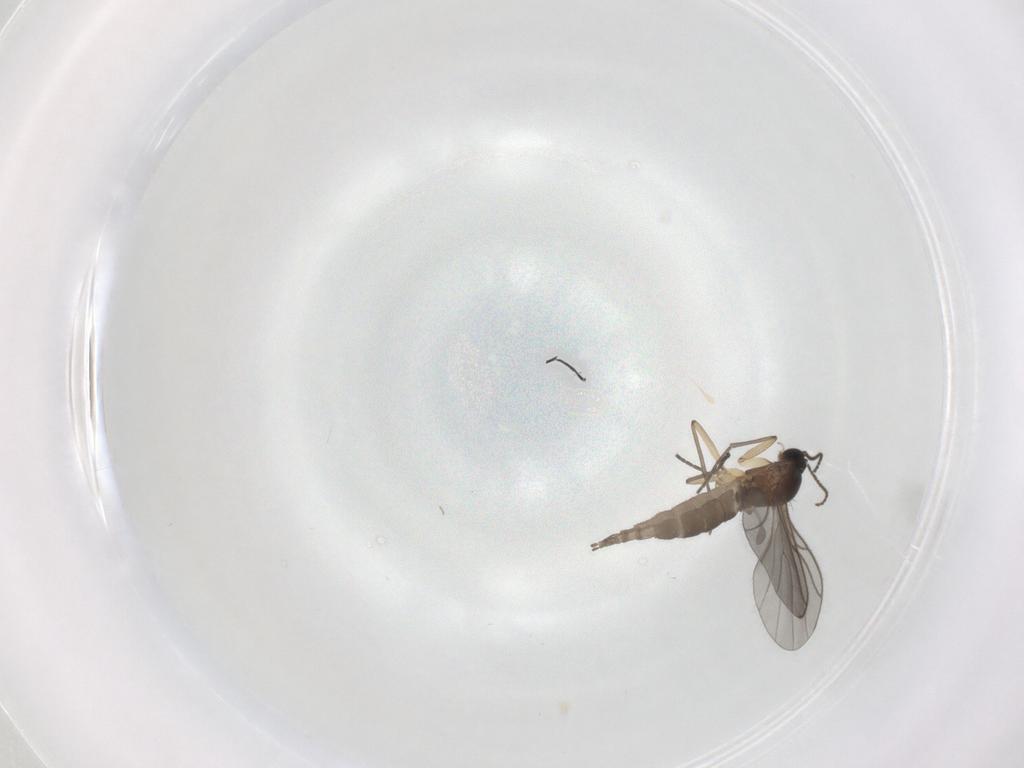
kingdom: Animalia
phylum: Arthropoda
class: Insecta
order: Diptera
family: Sciaridae
